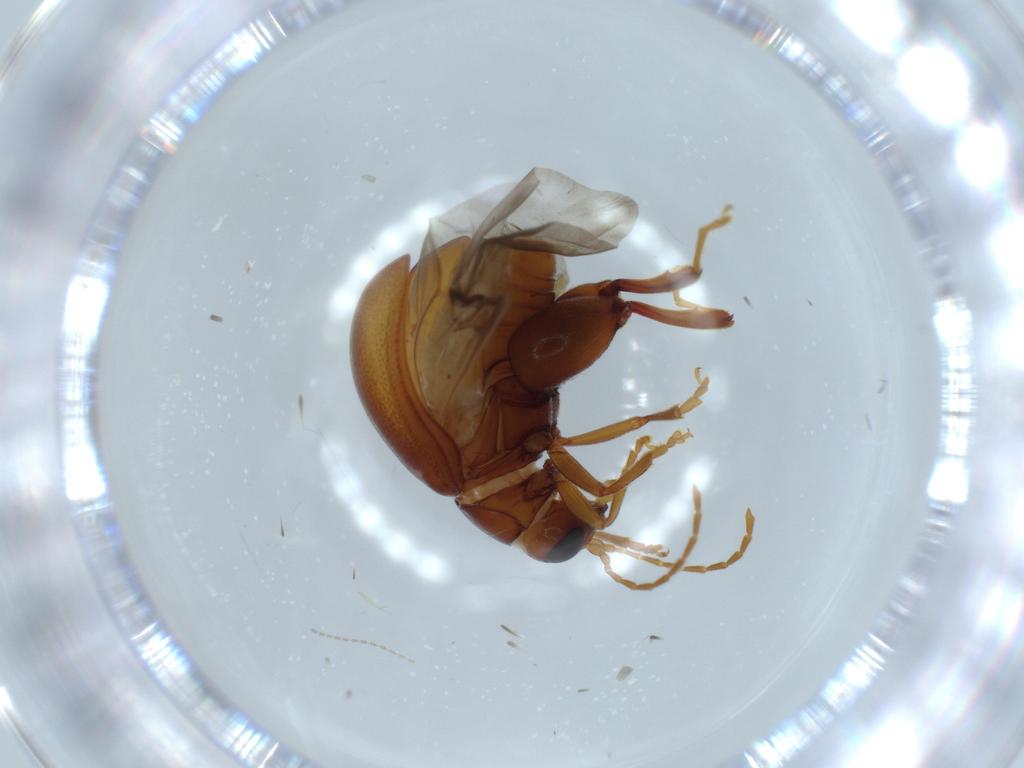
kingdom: Animalia
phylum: Arthropoda
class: Insecta
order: Coleoptera
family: Chrysomelidae
